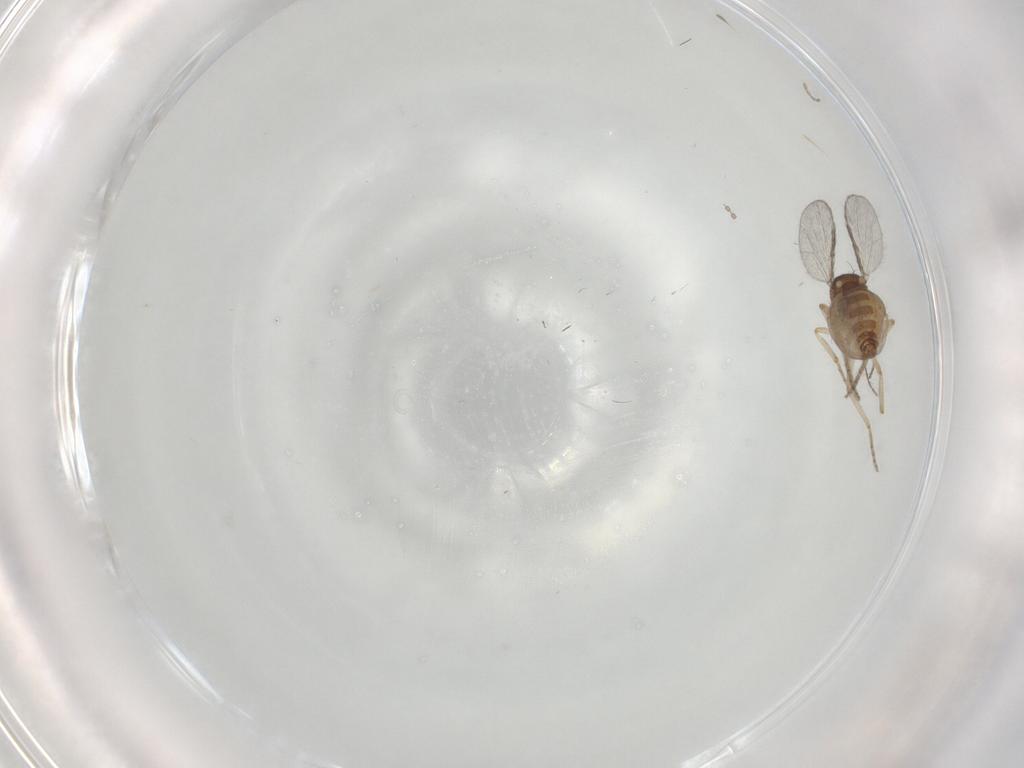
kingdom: Animalia
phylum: Arthropoda
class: Insecta
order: Diptera
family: Ceratopogonidae
